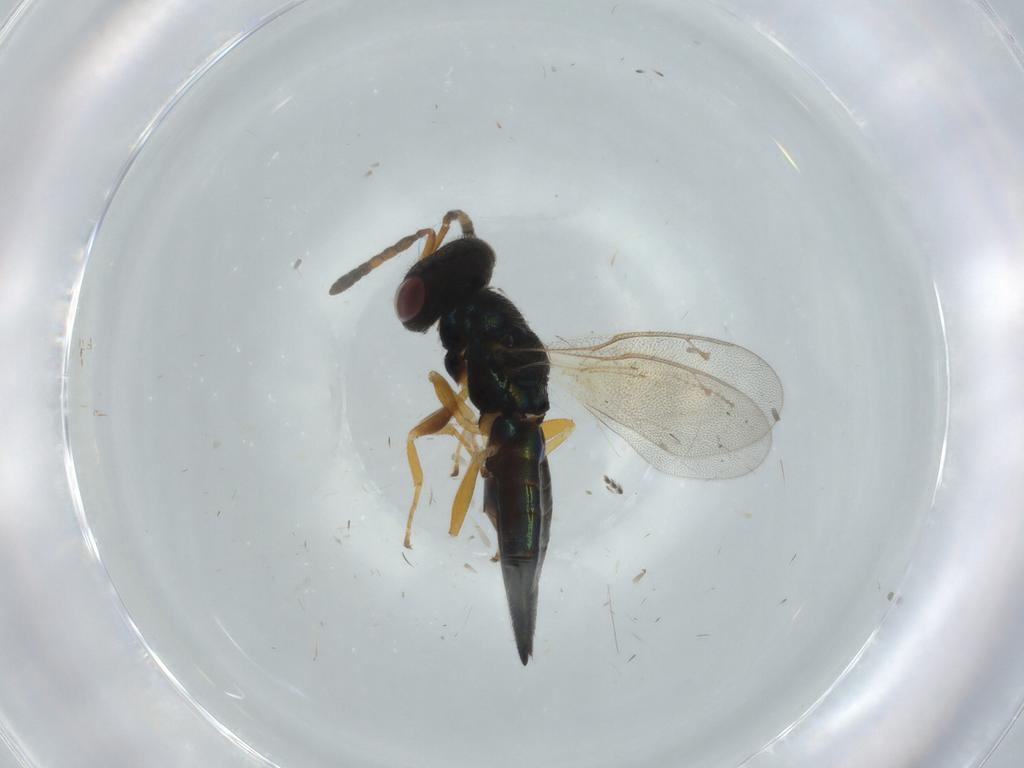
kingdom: Animalia
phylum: Arthropoda
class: Insecta
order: Hymenoptera
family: Pteromalidae
